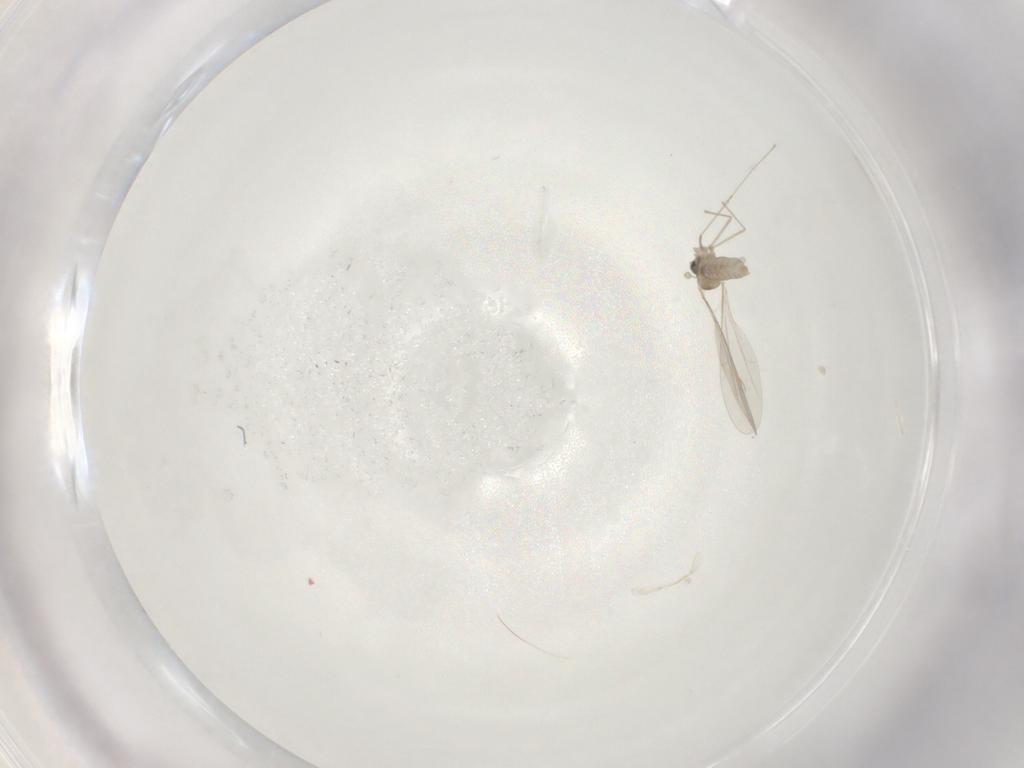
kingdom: Animalia
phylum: Arthropoda
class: Insecta
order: Diptera
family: Cecidomyiidae
